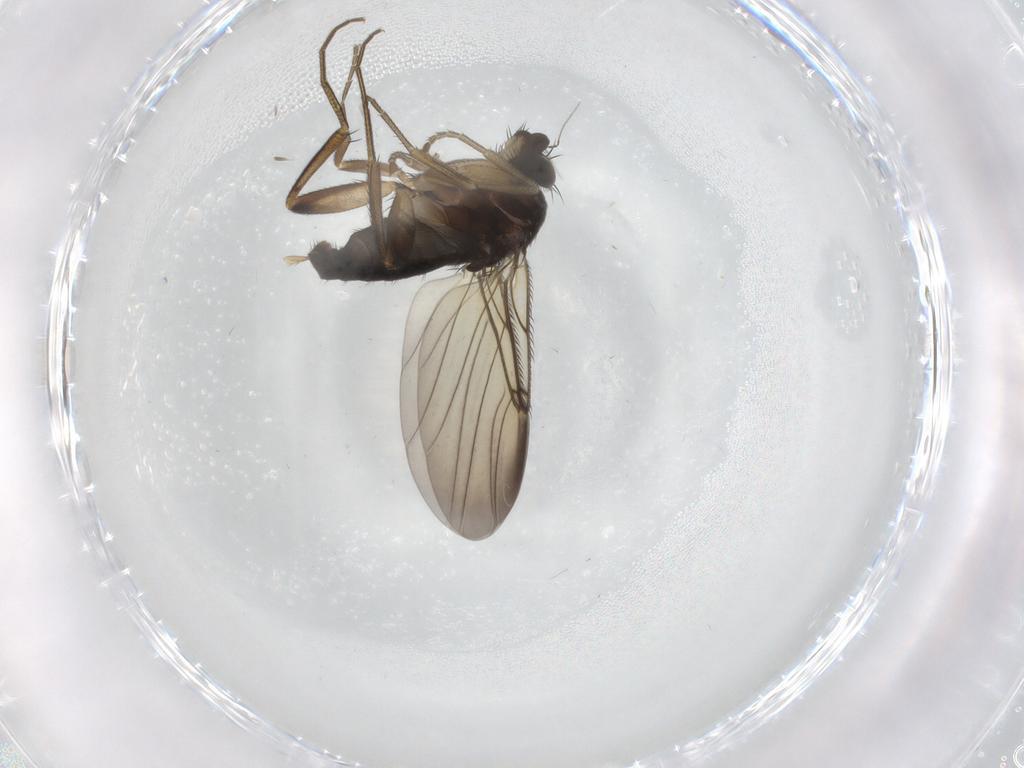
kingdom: Animalia
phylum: Arthropoda
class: Insecta
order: Diptera
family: Phoridae
